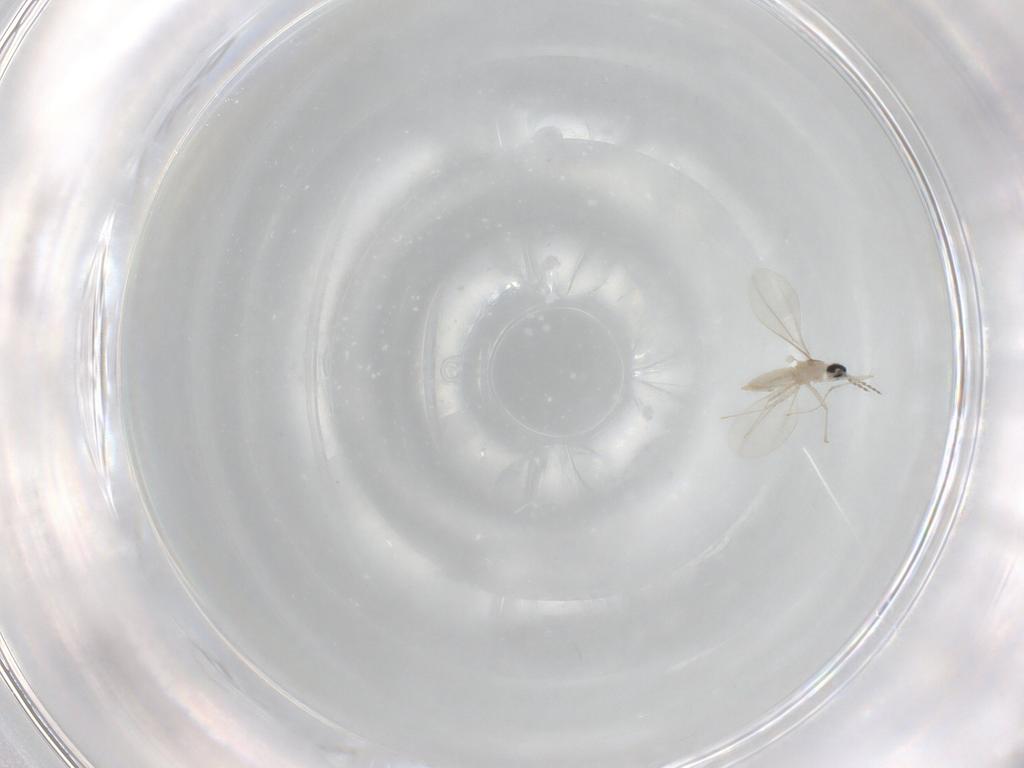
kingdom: Animalia
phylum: Arthropoda
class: Insecta
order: Diptera
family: Cecidomyiidae
